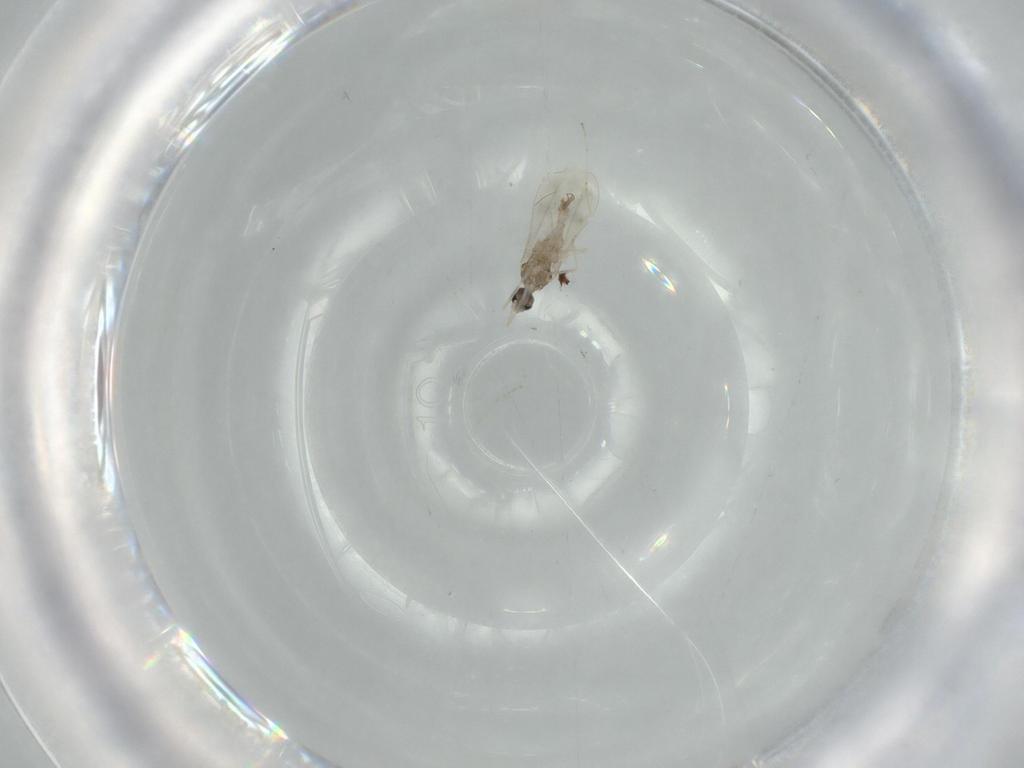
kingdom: Animalia
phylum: Arthropoda
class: Insecta
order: Diptera
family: Cecidomyiidae
